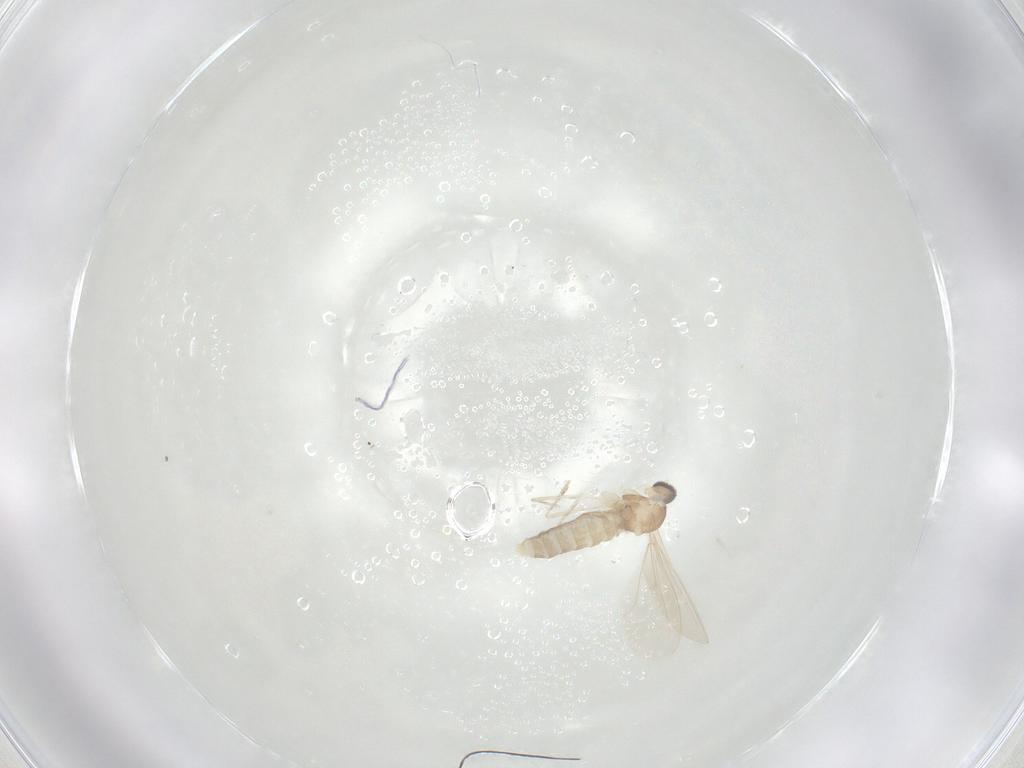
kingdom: Animalia
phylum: Arthropoda
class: Insecta
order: Diptera
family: Cecidomyiidae
